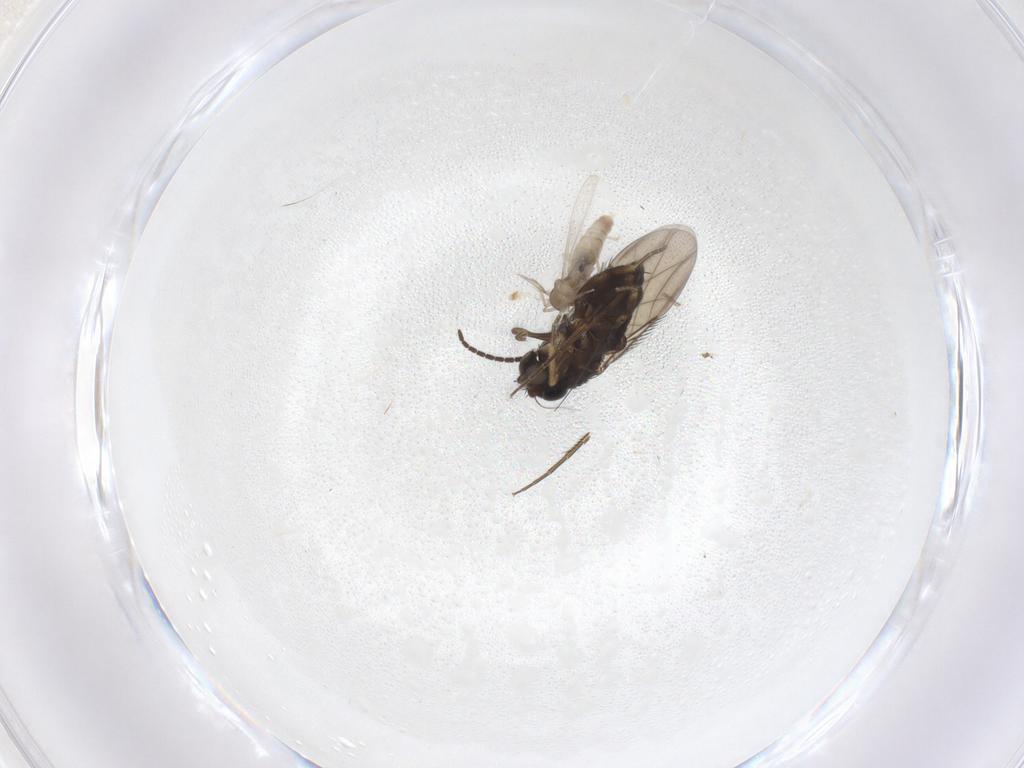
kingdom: Animalia
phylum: Arthropoda
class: Insecta
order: Diptera
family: Cecidomyiidae
